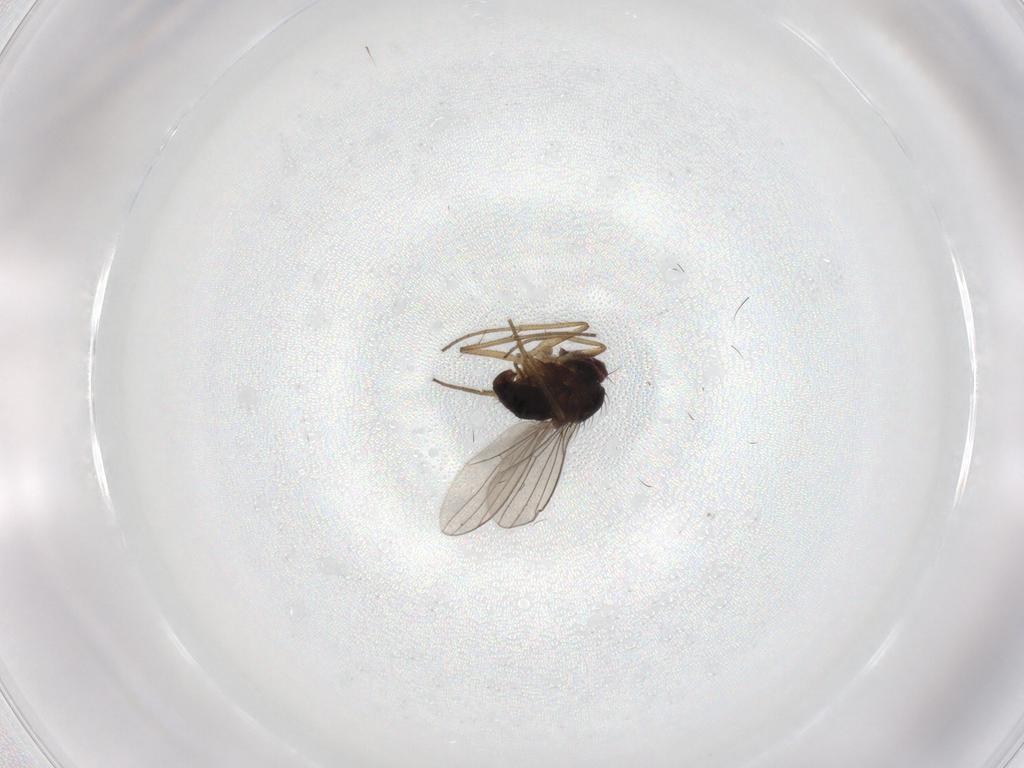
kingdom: Animalia
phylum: Arthropoda
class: Insecta
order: Diptera
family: Dolichopodidae
